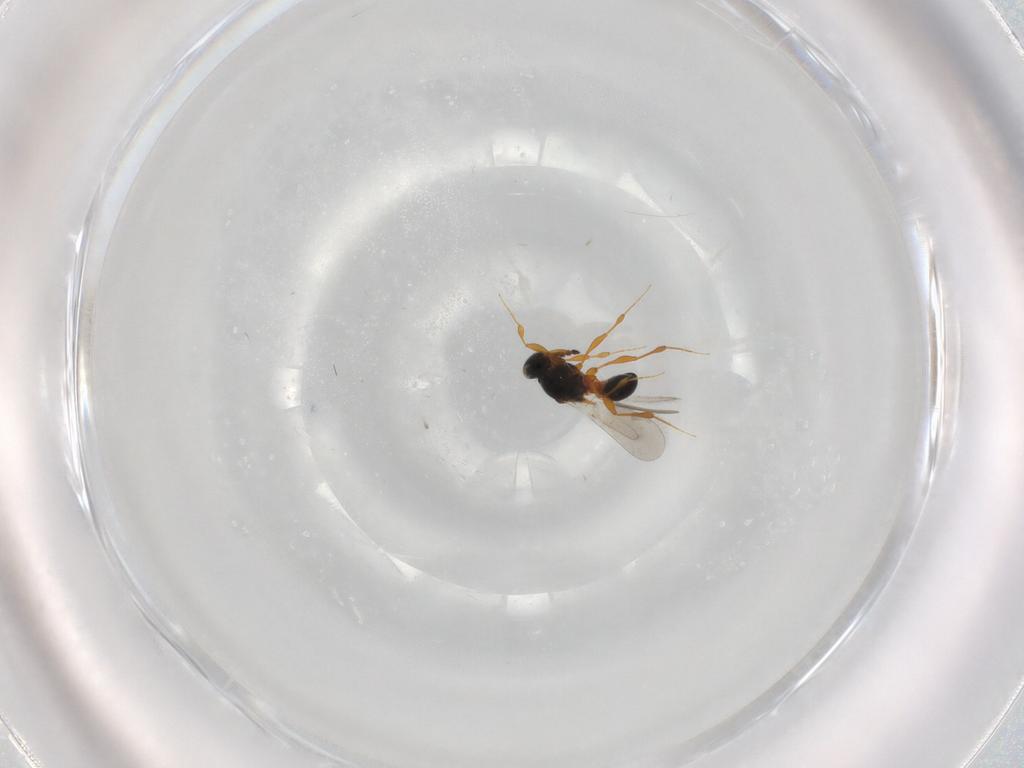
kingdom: Animalia
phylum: Arthropoda
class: Insecta
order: Hymenoptera
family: Platygastridae
